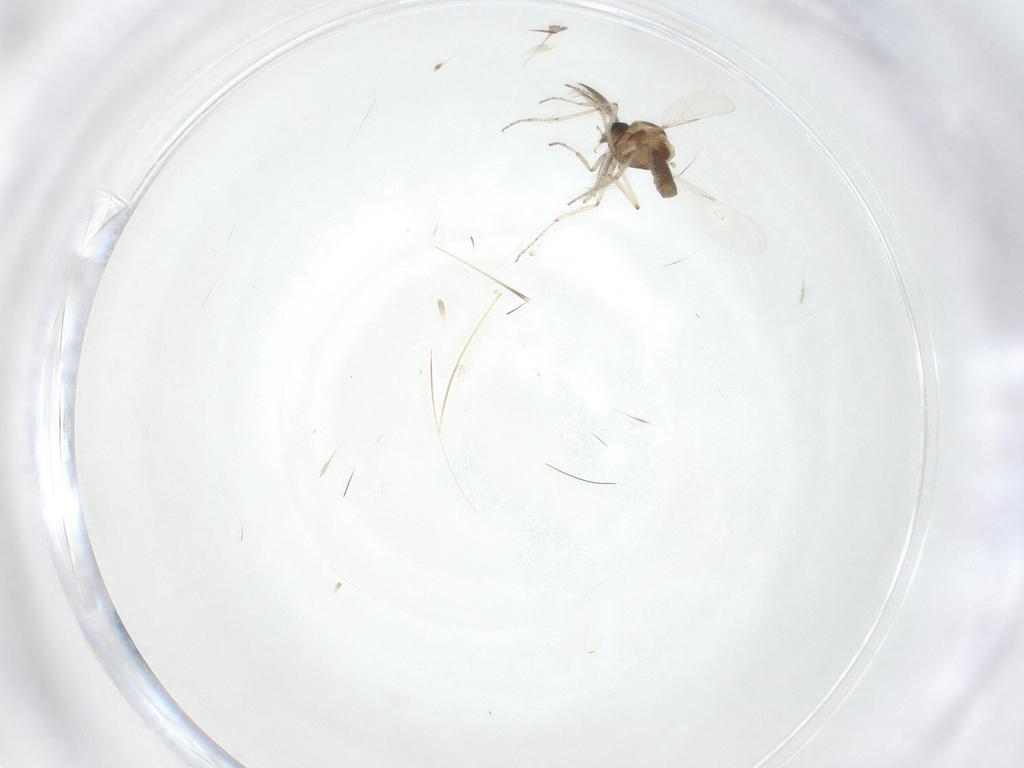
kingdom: Animalia
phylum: Arthropoda
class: Insecta
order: Diptera
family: Ceratopogonidae
